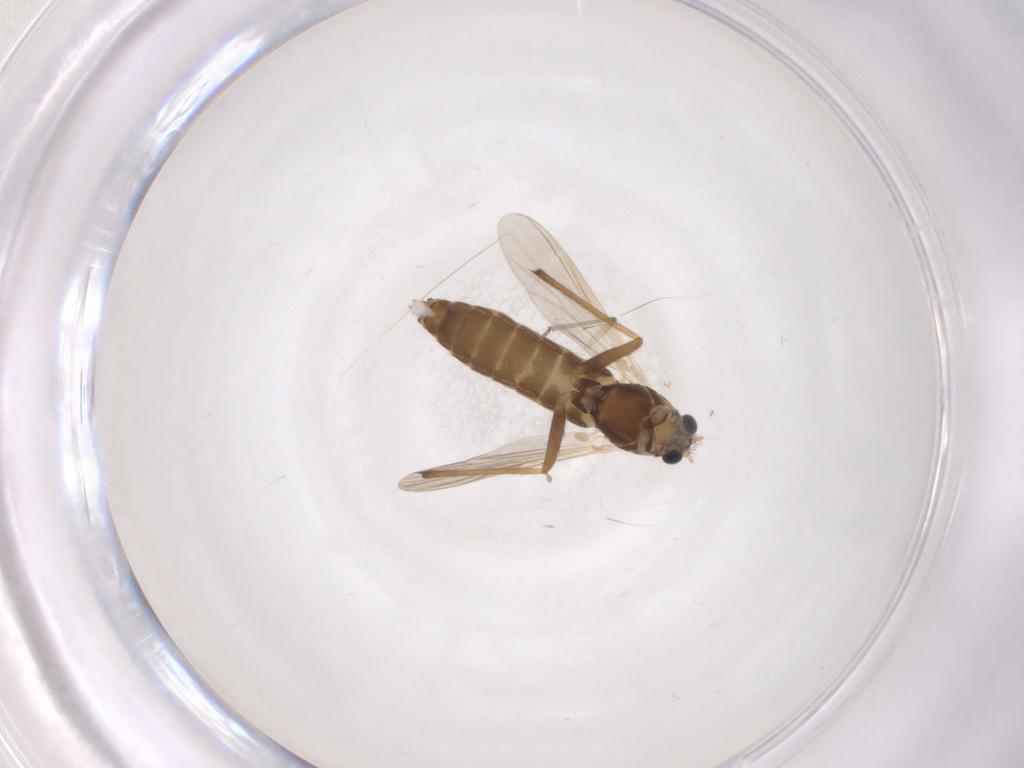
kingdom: Animalia
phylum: Arthropoda
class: Insecta
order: Diptera
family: Chironomidae
